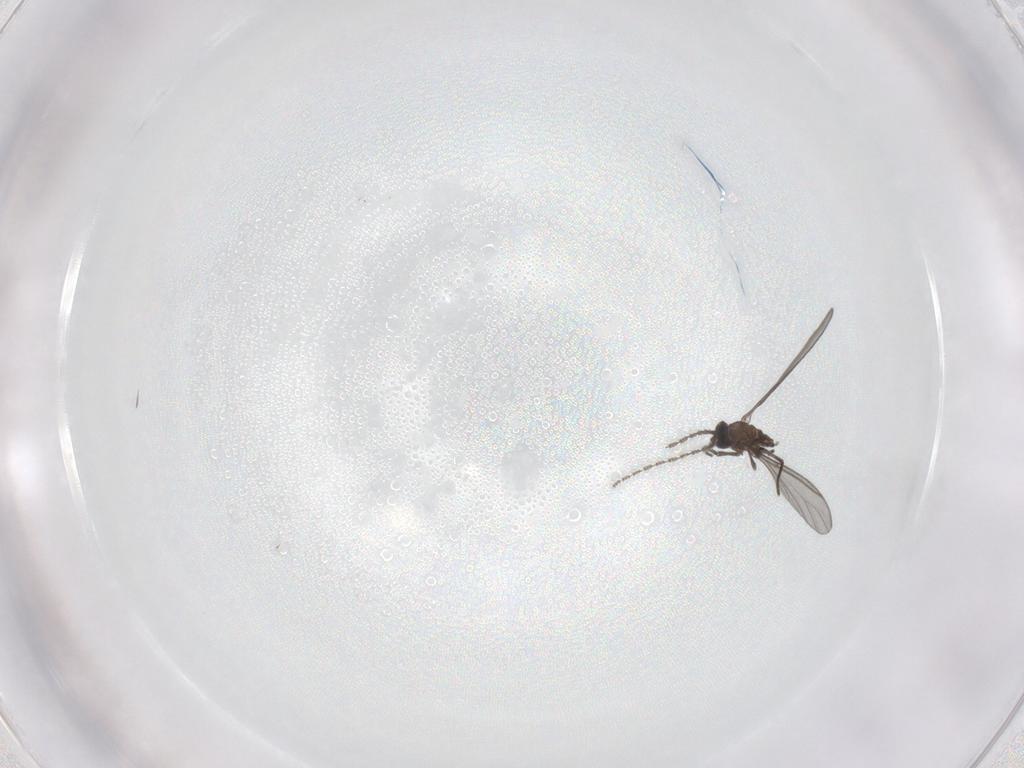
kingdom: Animalia
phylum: Arthropoda
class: Insecta
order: Diptera
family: Sciaridae
